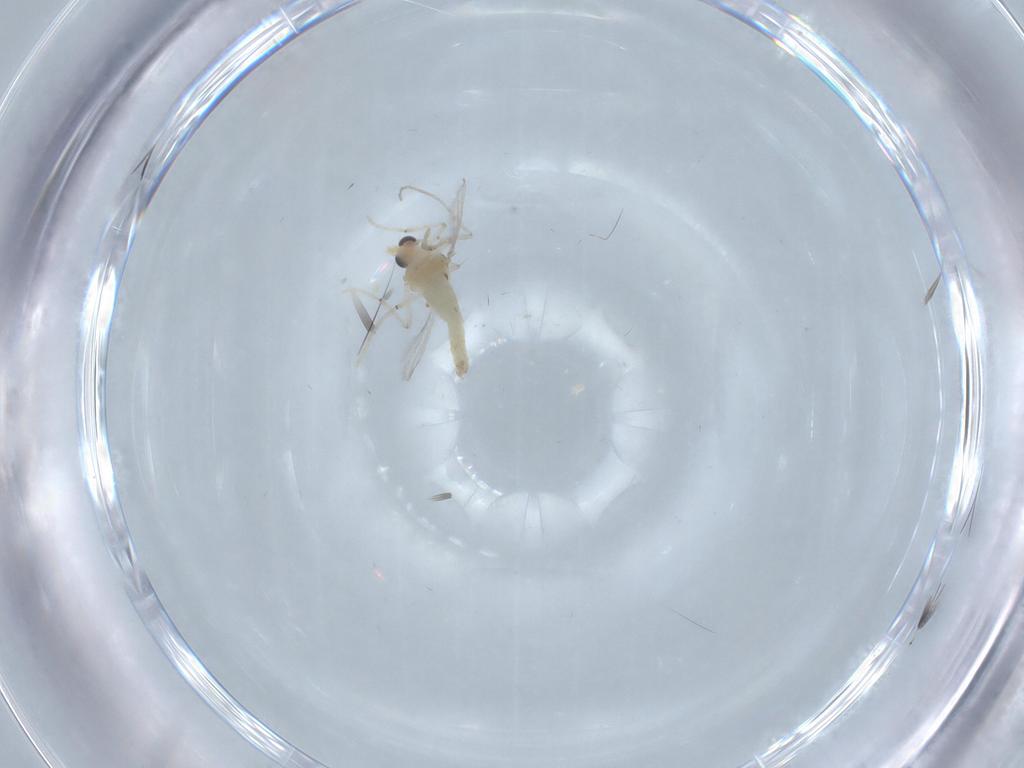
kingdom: Animalia
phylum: Arthropoda
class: Insecta
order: Diptera
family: Chironomidae
